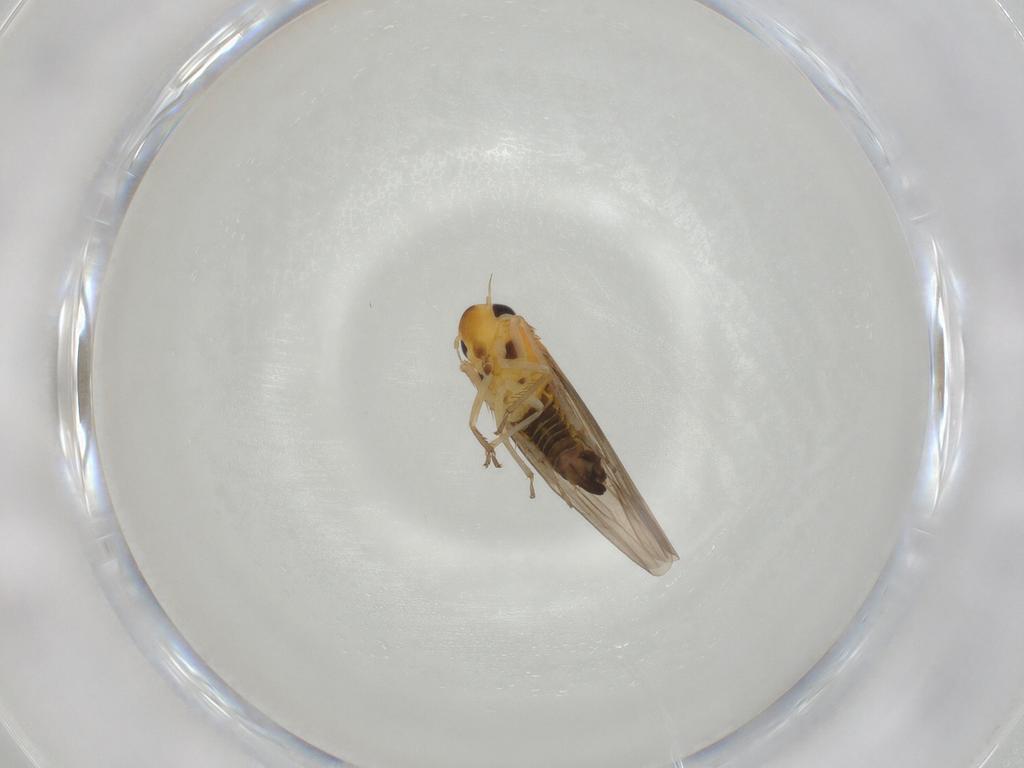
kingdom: Animalia
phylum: Arthropoda
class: Insecta
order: Hemiptera
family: Cicadellidae
